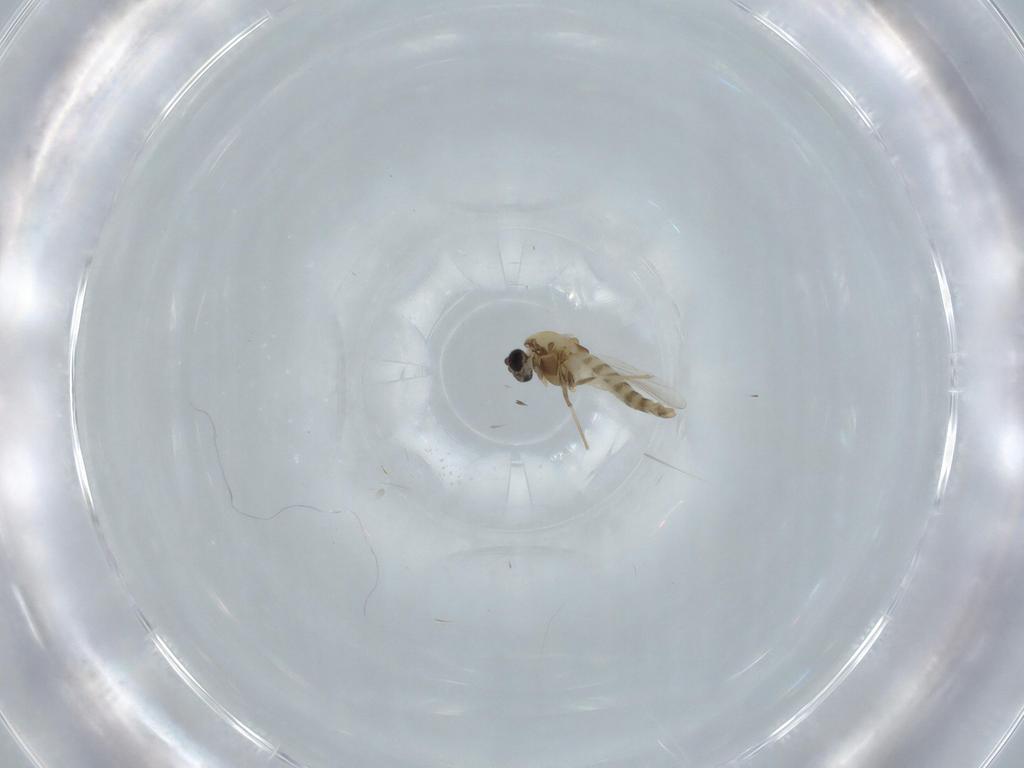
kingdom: Animalia
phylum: Arthropoda
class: Insecta
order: Diptera
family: Chironomidae
